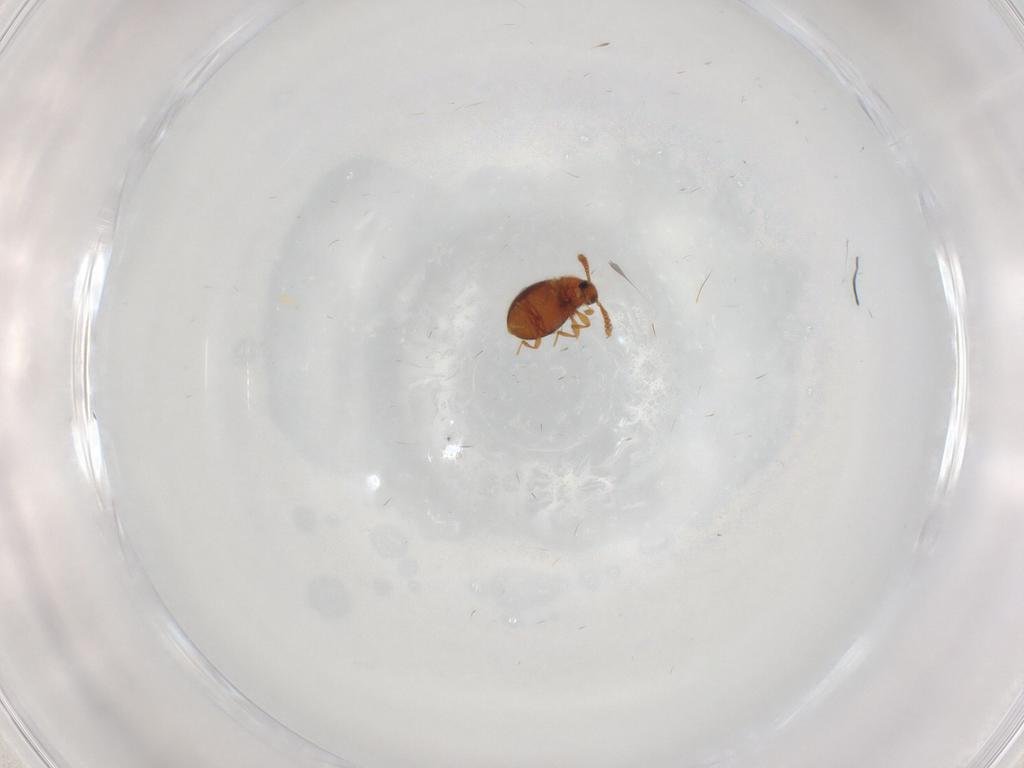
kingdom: Animalia
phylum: Arthropoda
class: Insecta
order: Coleoptera
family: Staphylinidae
